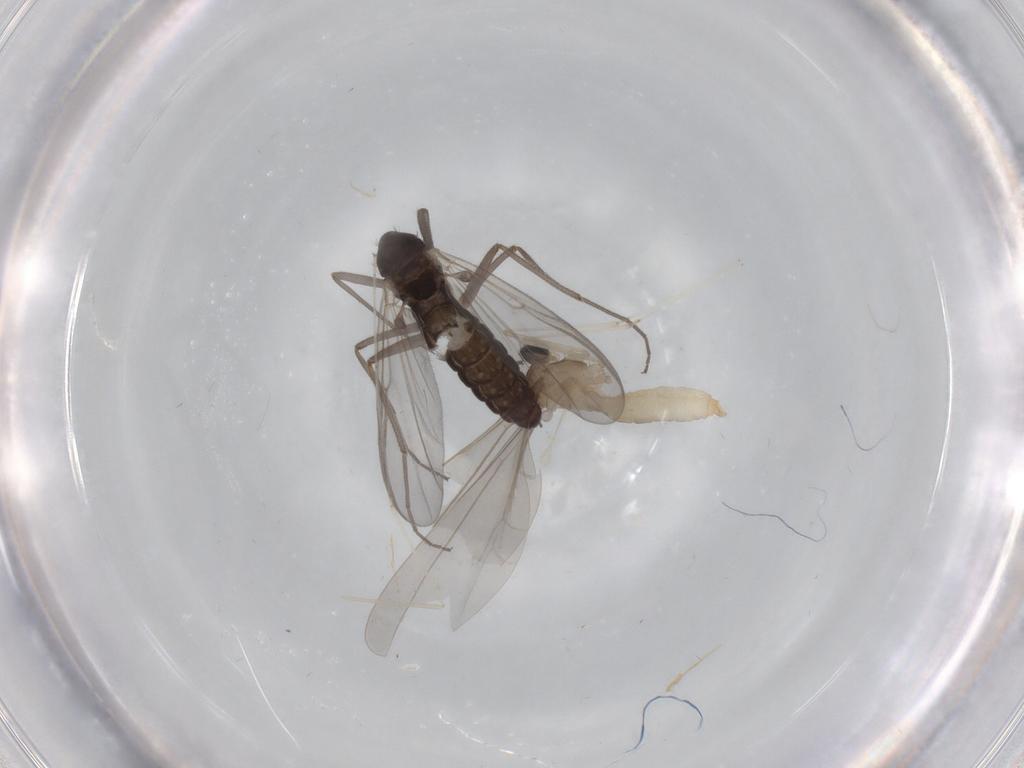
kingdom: Animalia
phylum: Arthropoda
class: Insecta
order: Diptera
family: Chironomidae
